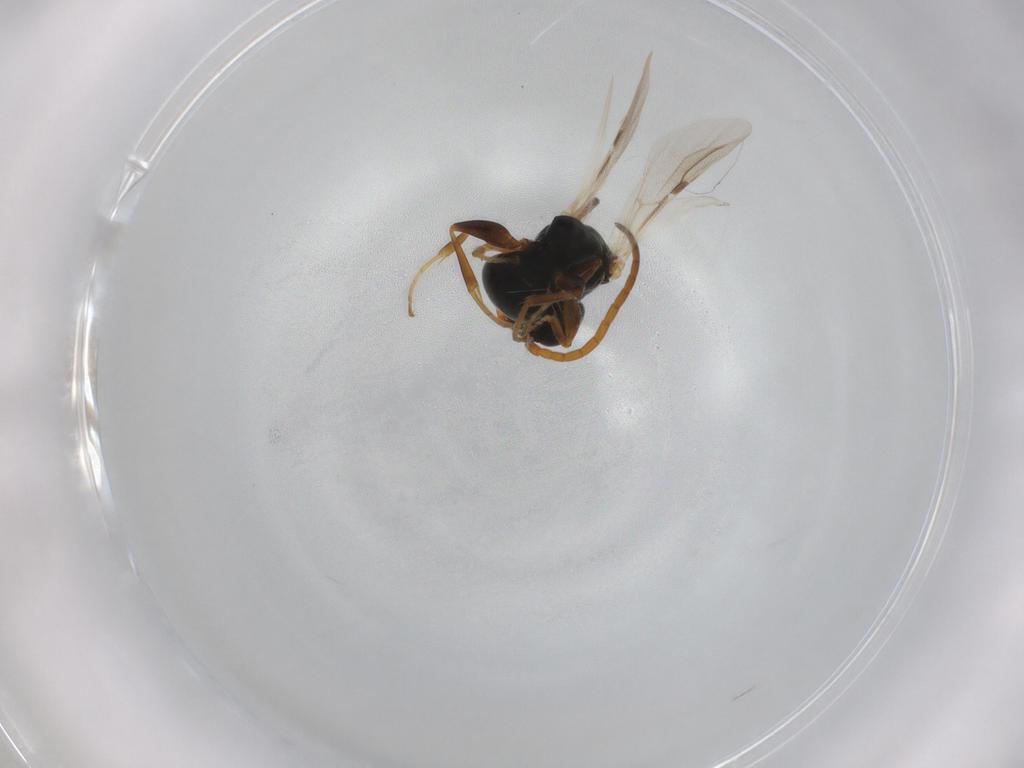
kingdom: Animalia
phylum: Arthropoda
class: Insecta
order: Hymenoptera
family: Bethylidae
